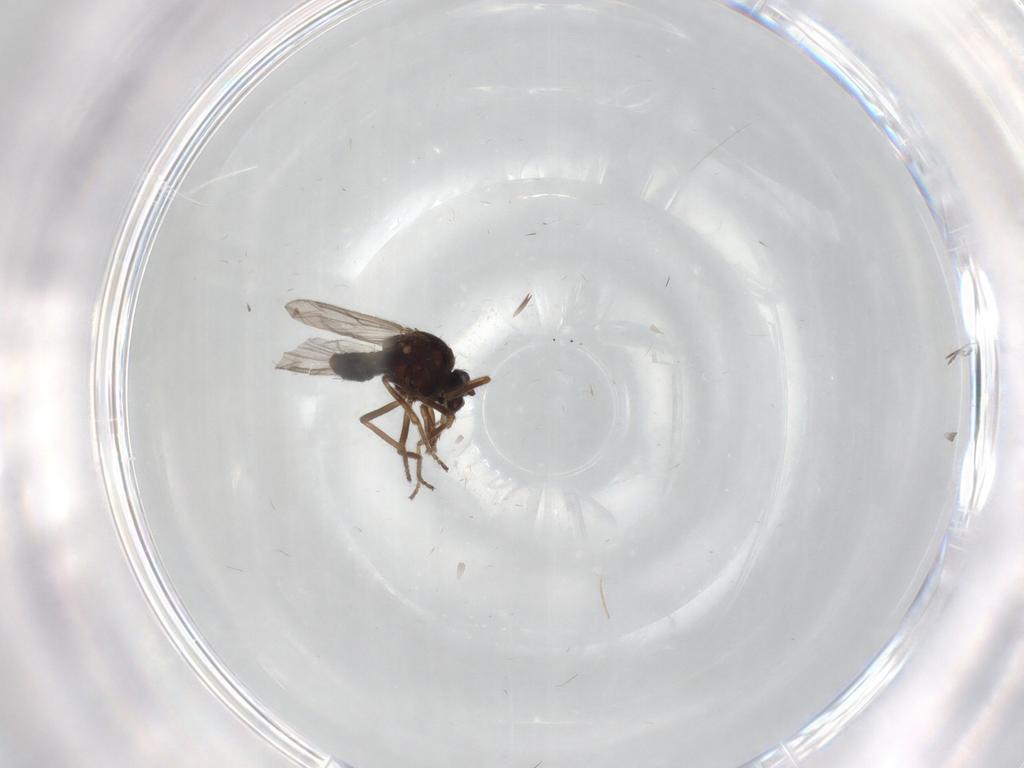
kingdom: Animalia
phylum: Arthropoda
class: Insecta
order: Diptera
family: Ceratopogonidae
